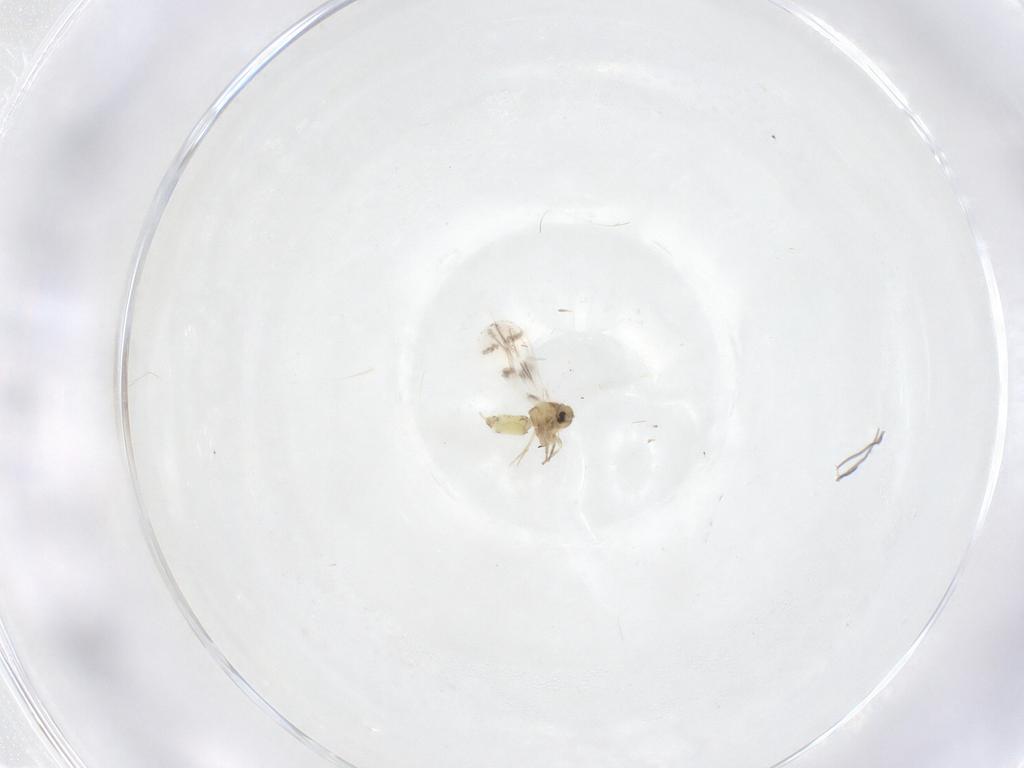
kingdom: Animalia
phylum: Arthropoda
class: Insecta
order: Hemiptera
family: Aleyrodidae
